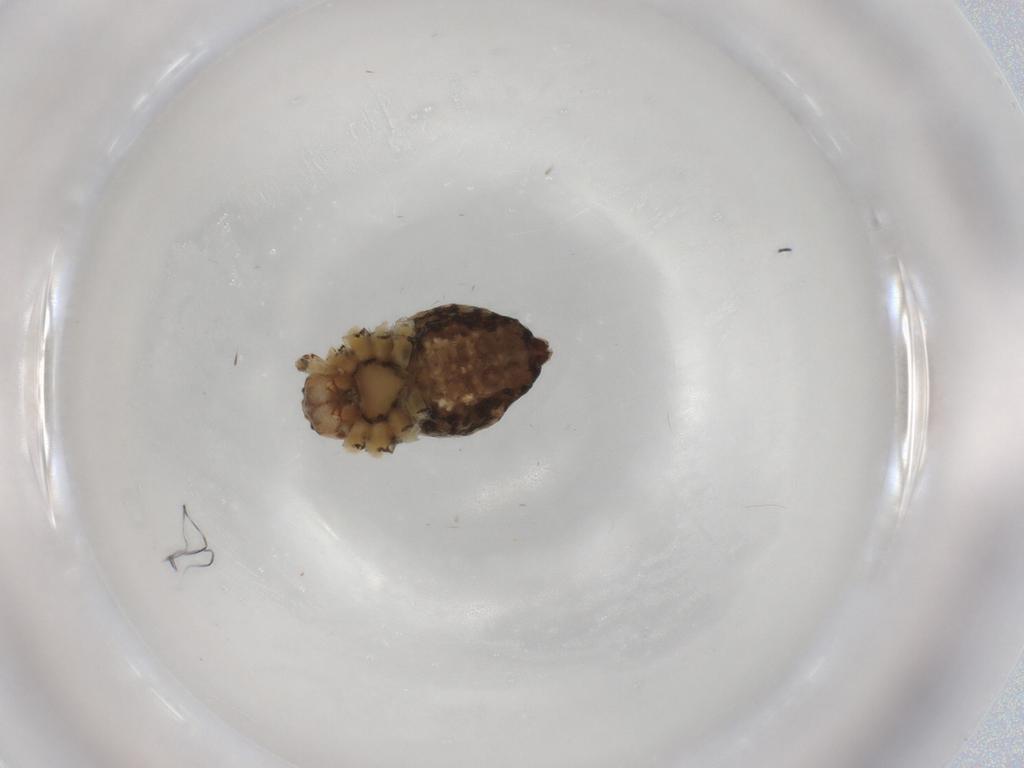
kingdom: Animalia
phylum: Arthropoda
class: Arachnida
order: Araneae
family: Pisauridae
